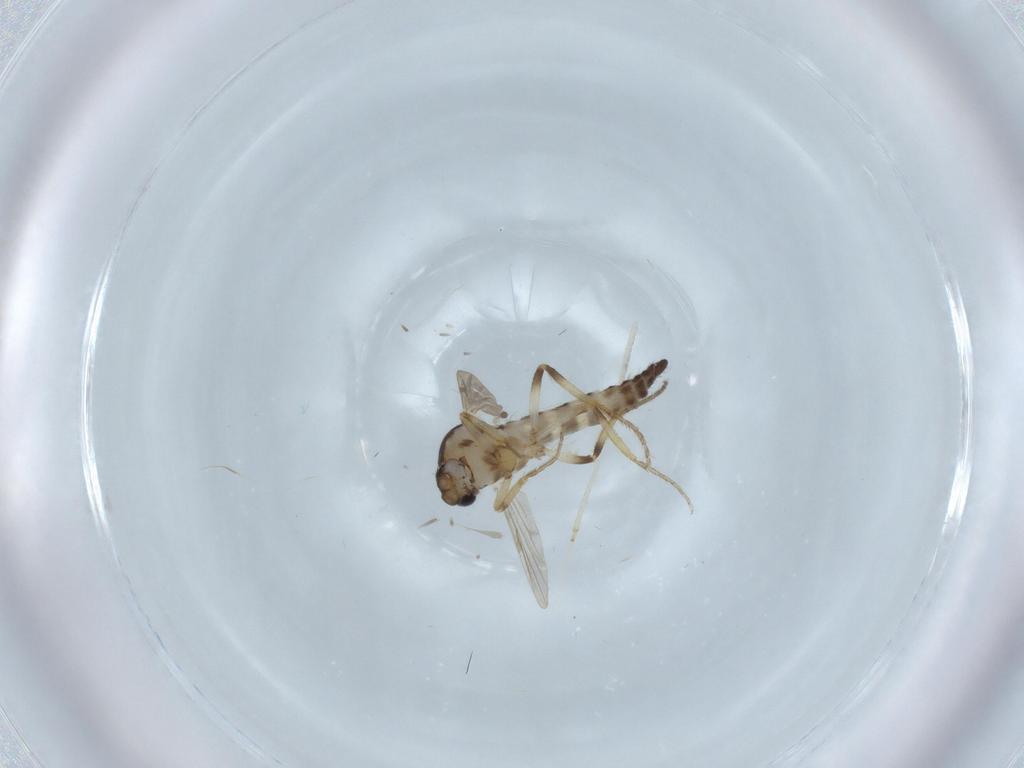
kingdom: Animalia
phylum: Arthropoda
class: Insecta
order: Diptera
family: Ceratopogonidae
